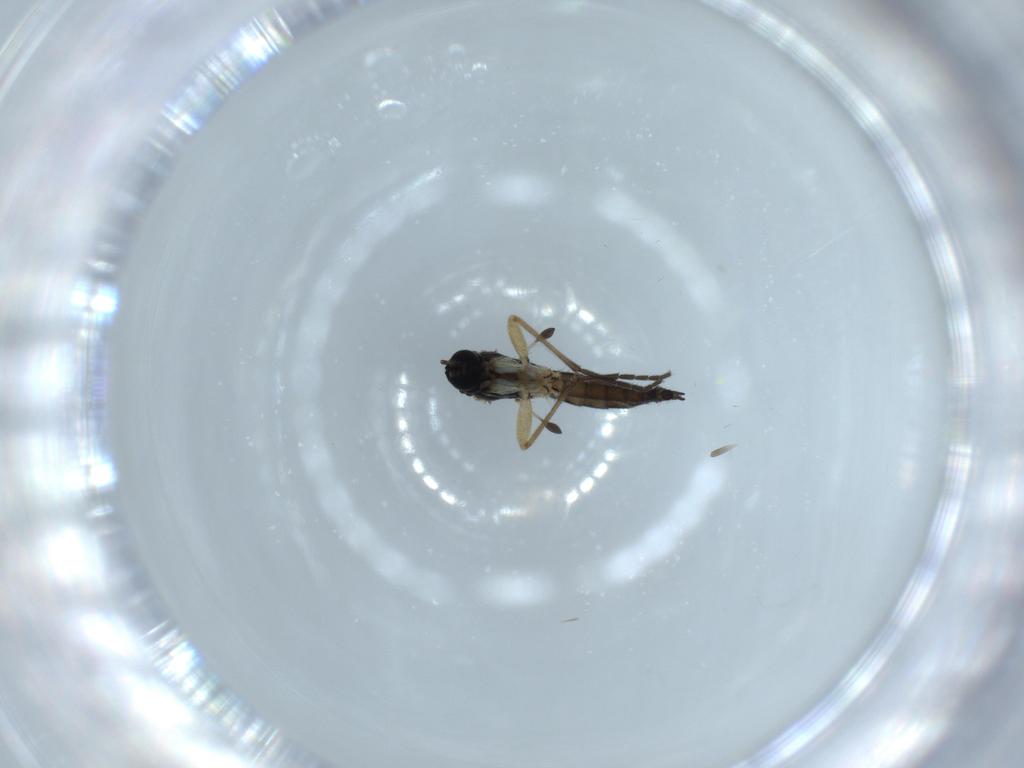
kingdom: Animalia
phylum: Arthropoda
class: Insecta
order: Diptera
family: Sciaridae
